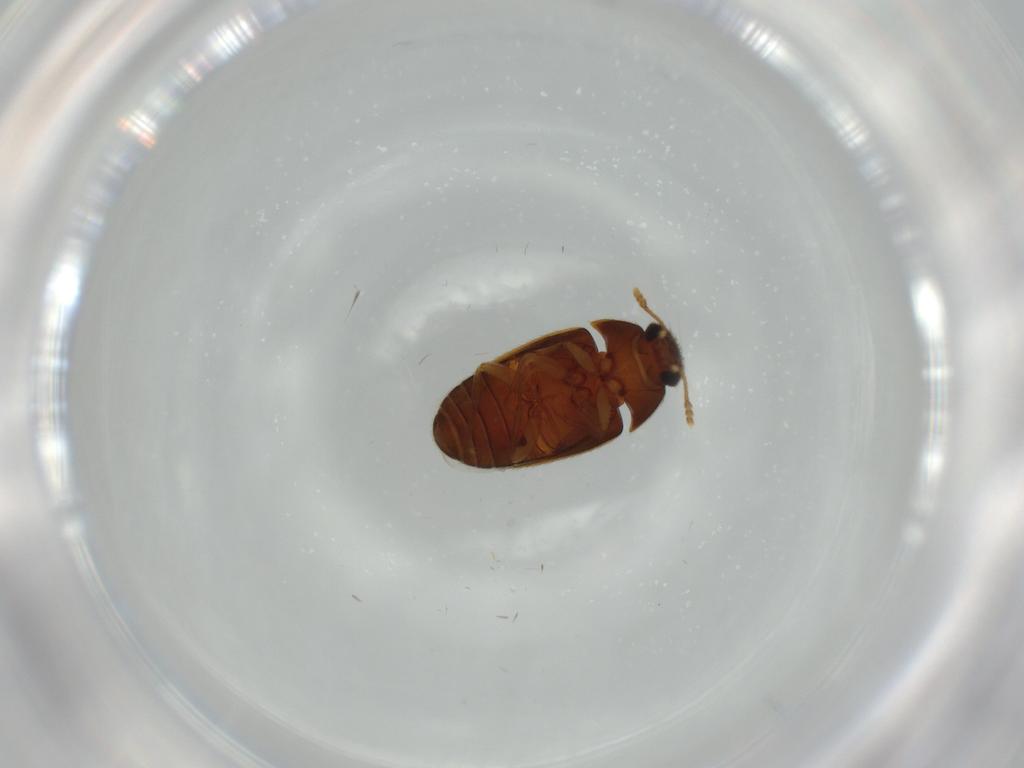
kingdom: Animalia
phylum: Arthropoda
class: Insecta
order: Coleoptera
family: Mycetophagidae
